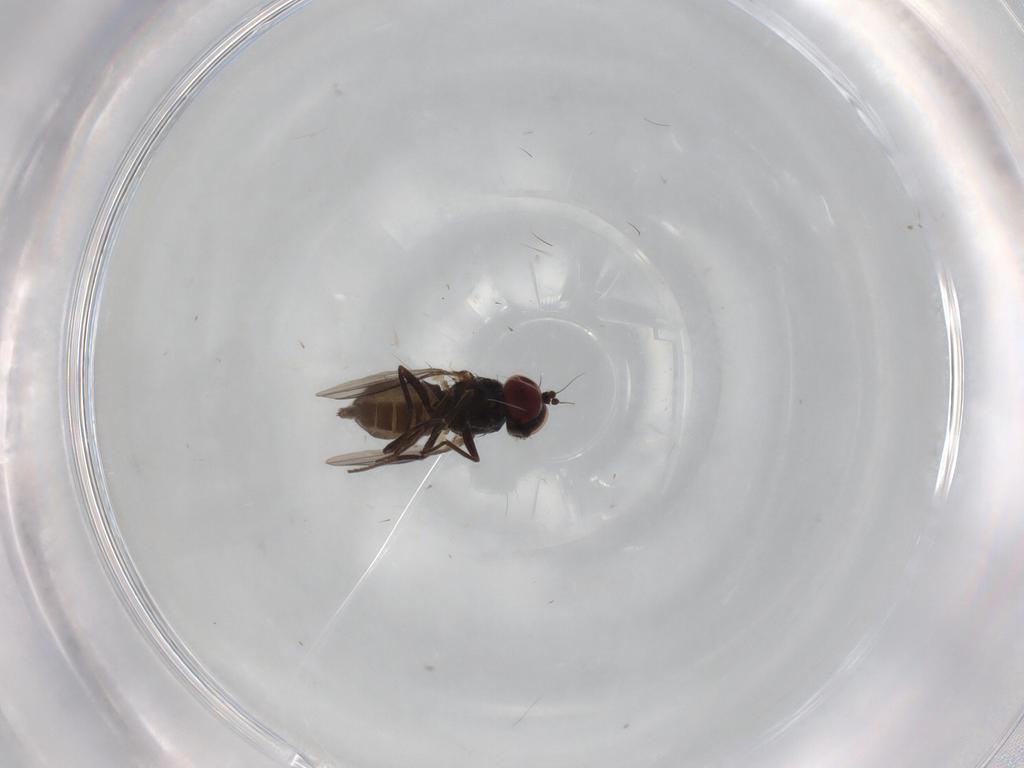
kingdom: Animalia
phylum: Arthropoda
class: Insecta
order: Diptera
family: Dolichopodidae
